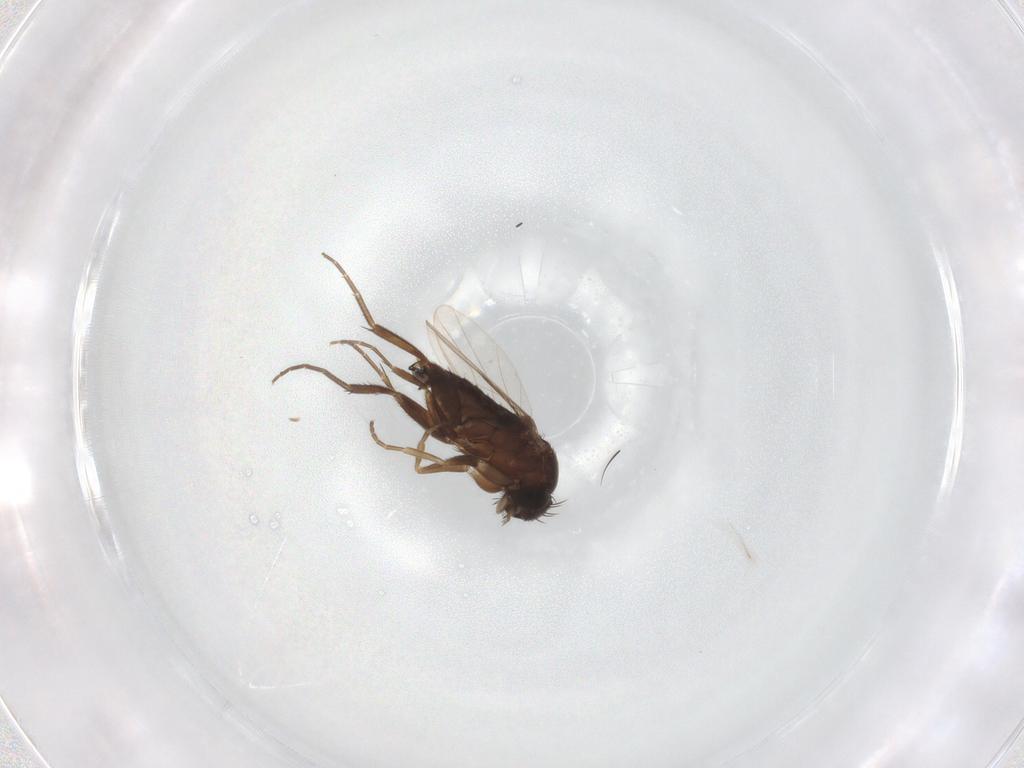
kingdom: Animalia
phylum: Arthropoda
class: Insecta
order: Diptera
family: Phoridae
